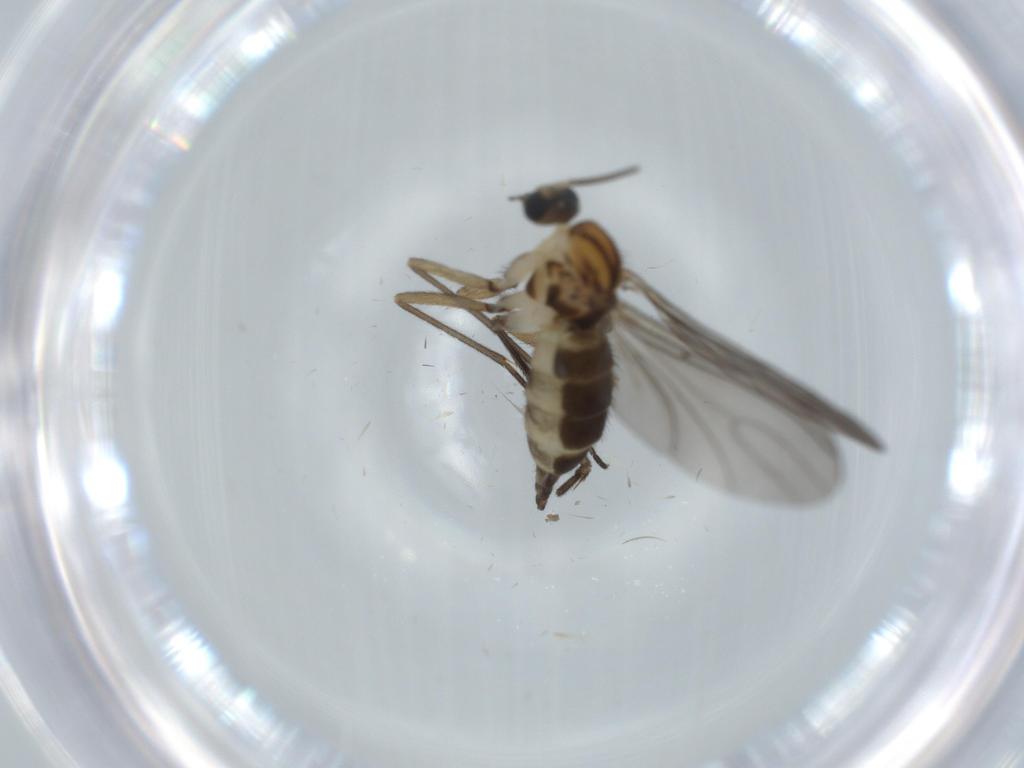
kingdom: Animalia
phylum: Arthropoda
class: Insecta
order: Diptera
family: Sciaridae
